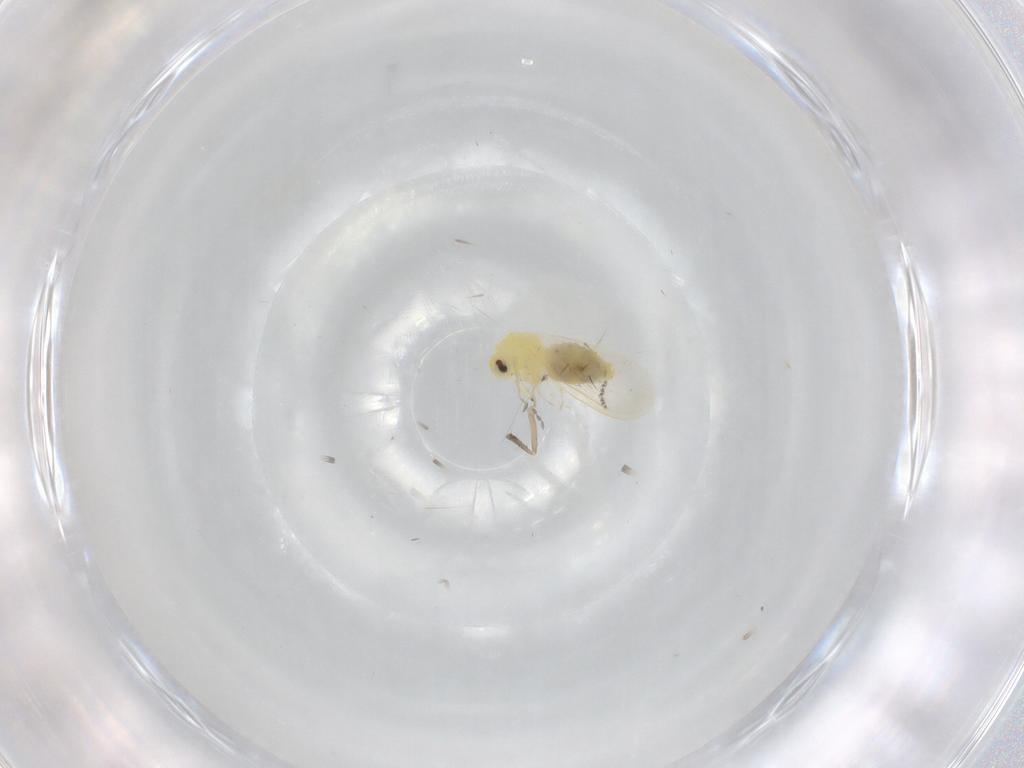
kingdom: Animalia
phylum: Arthropoda
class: Insecta
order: Hemiptera
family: Aleyrodidae
